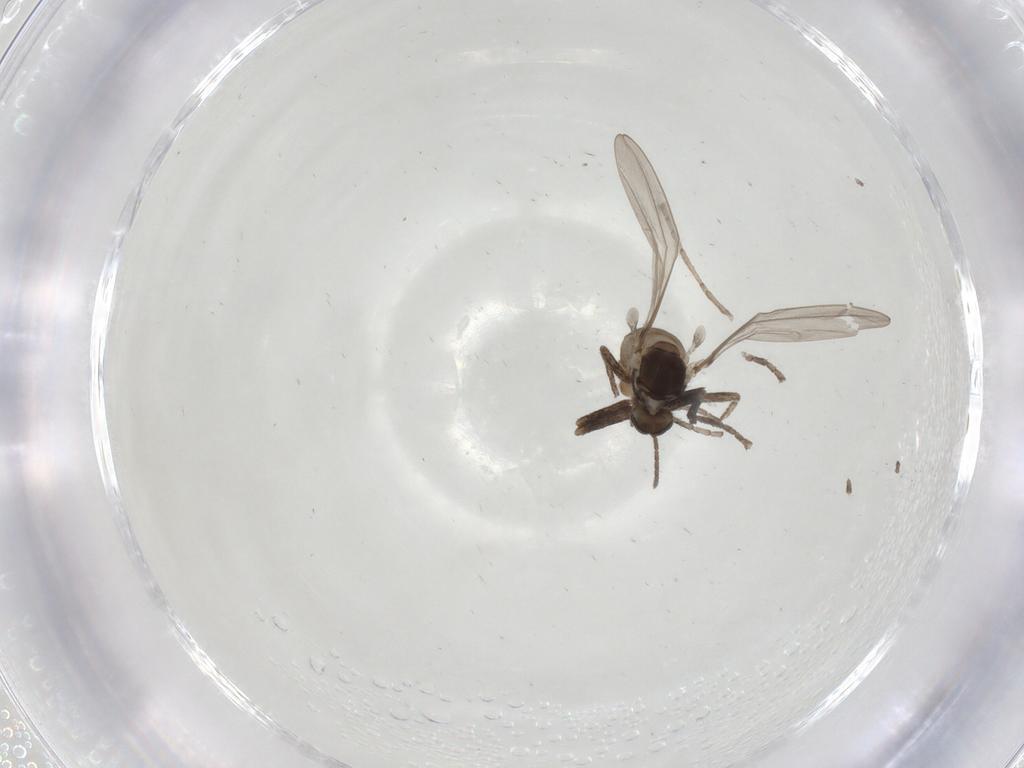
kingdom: Animalia
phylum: Arthropoda
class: Insecta
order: Diptera
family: Cecidomyiidae
